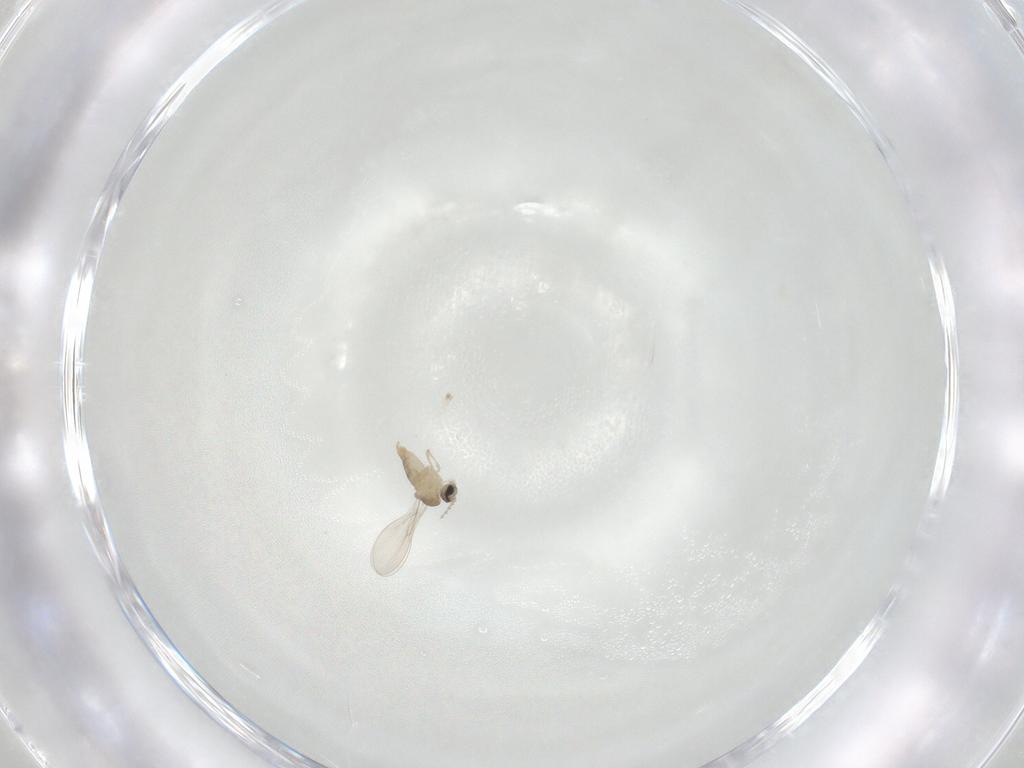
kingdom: Animalia
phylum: Arthropoda
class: Insecta
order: Diptera
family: Cecidomyiidae
